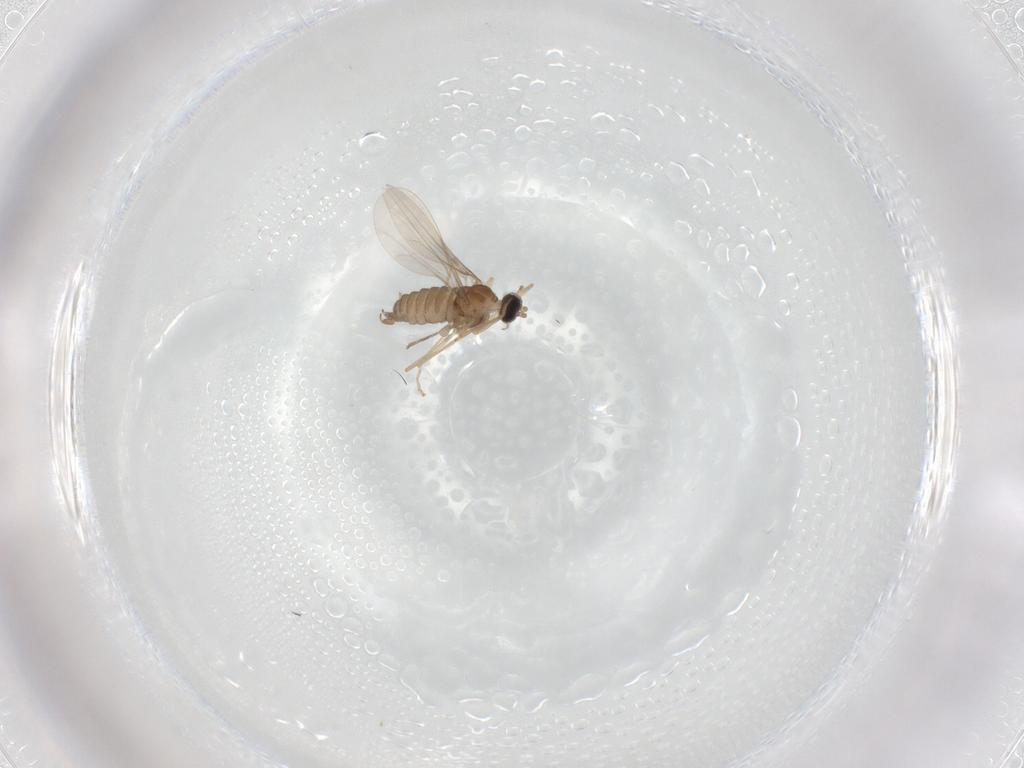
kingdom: Animalia
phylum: Arthropoda
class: Insecta
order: Diptera
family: Cecidomyiidae
